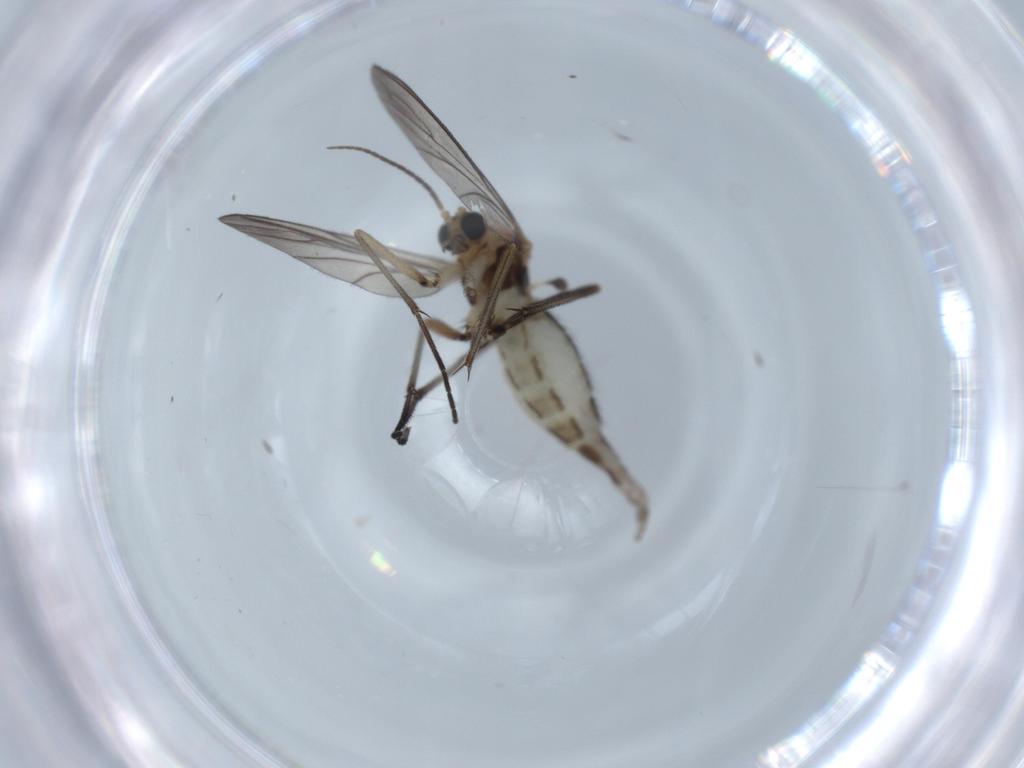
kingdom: Animalia
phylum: Arthropoda
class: Insecta
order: Diptera
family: Sciaridae
